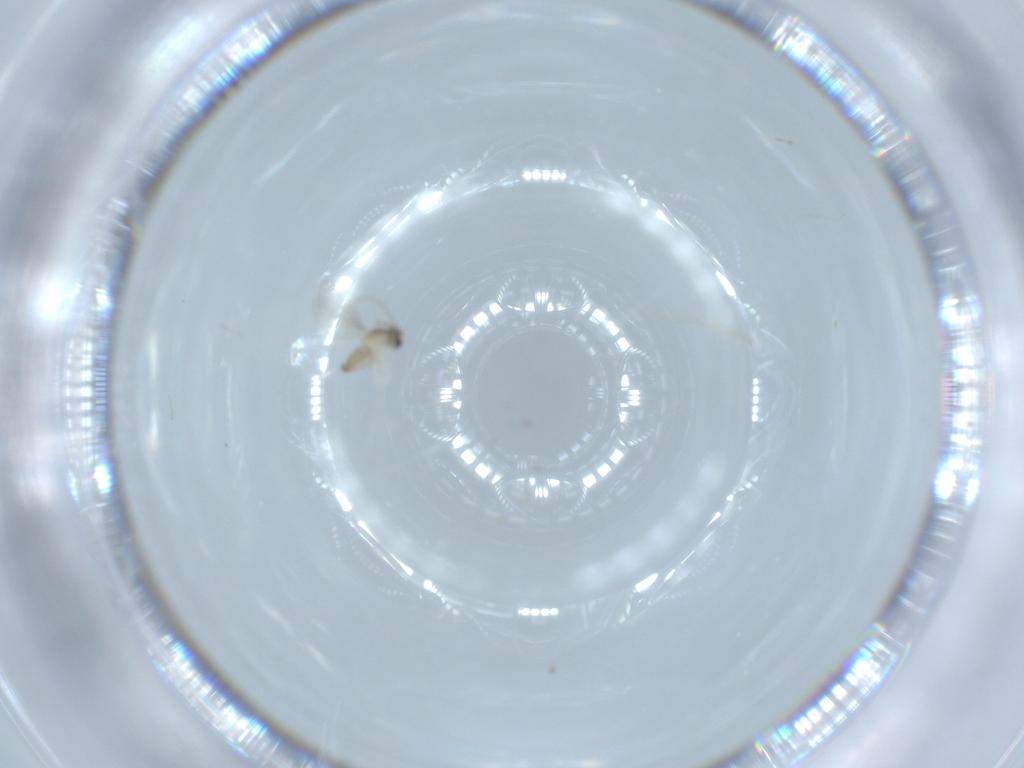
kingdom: Animalia
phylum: Arthropoda
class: Insecta
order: Diptera
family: Cecidomyiidae
